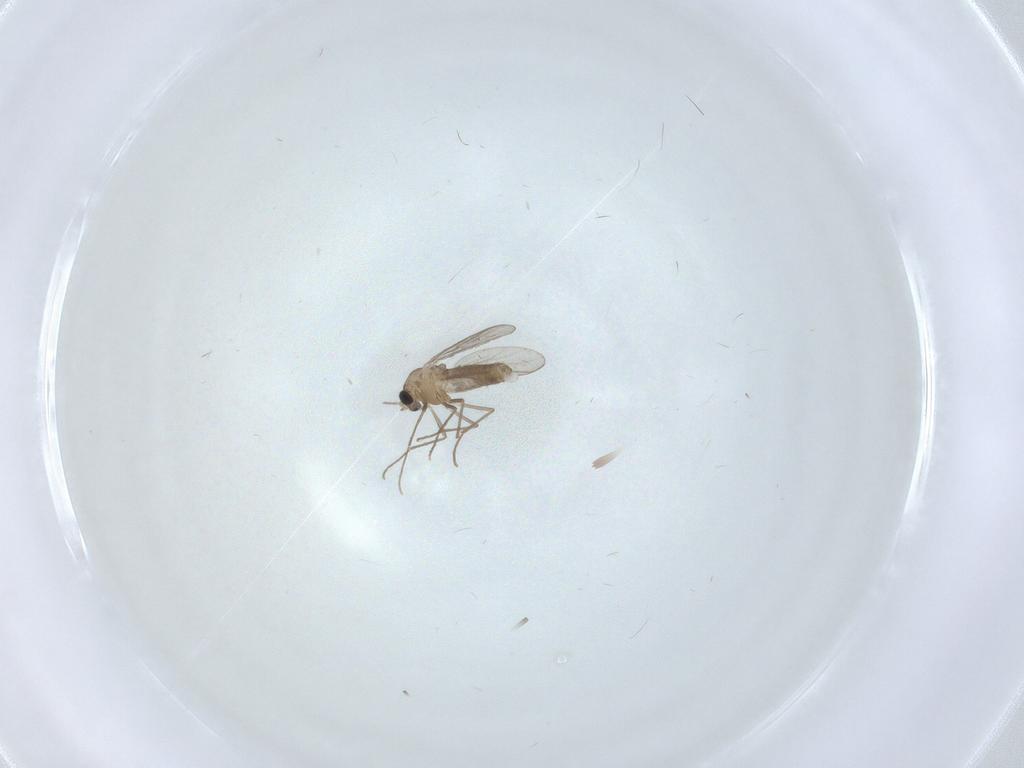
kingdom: Animalia
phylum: Arthropoda
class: Insecta
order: Diptera
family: Chironomidae
